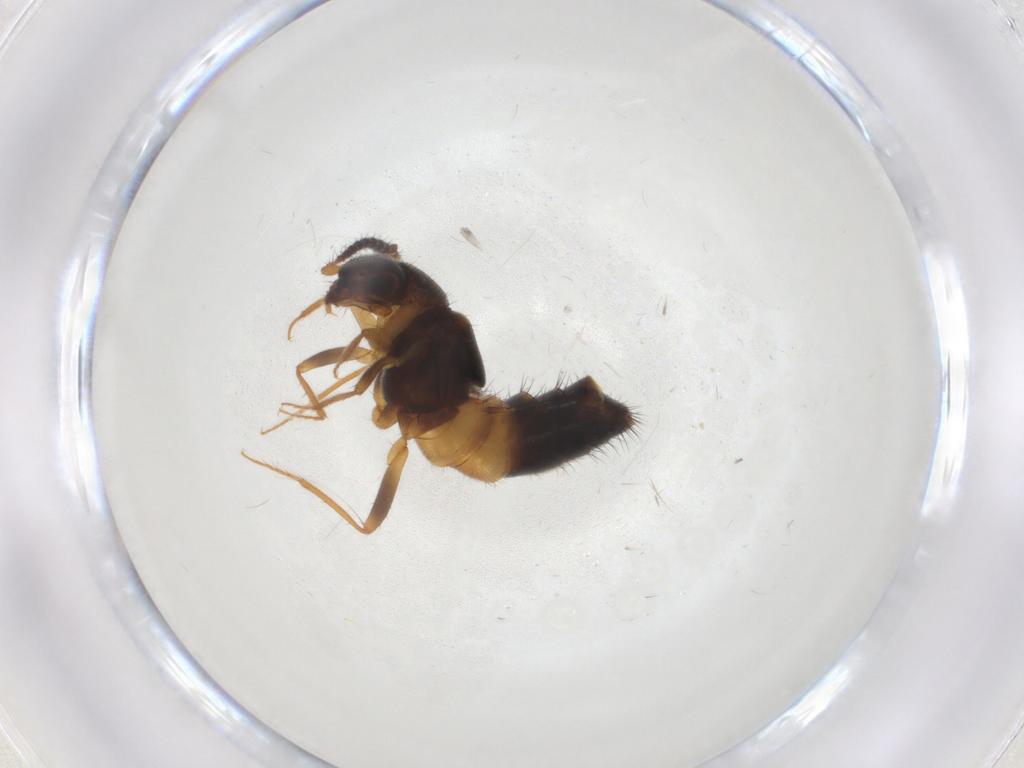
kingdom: Animalia
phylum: Arthropoda
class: Insecta
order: Coleoptera
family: Staphylinidae
